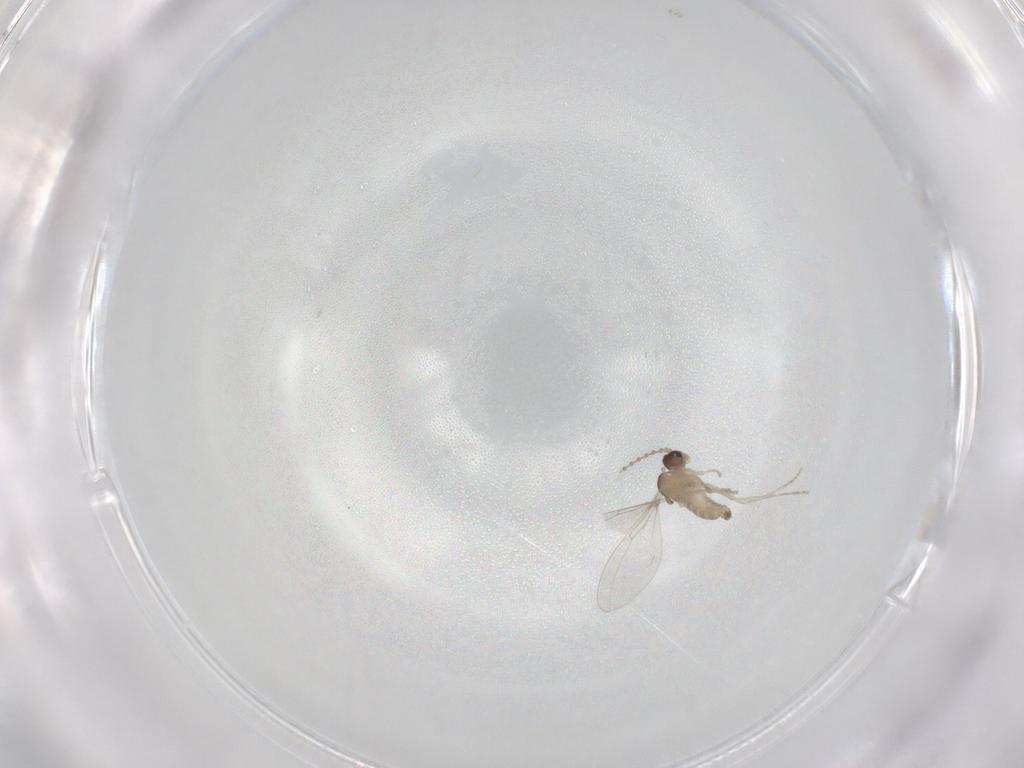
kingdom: Animalia
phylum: Arthropoda
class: Insecta
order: Diptera
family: Cecidomyiidae
